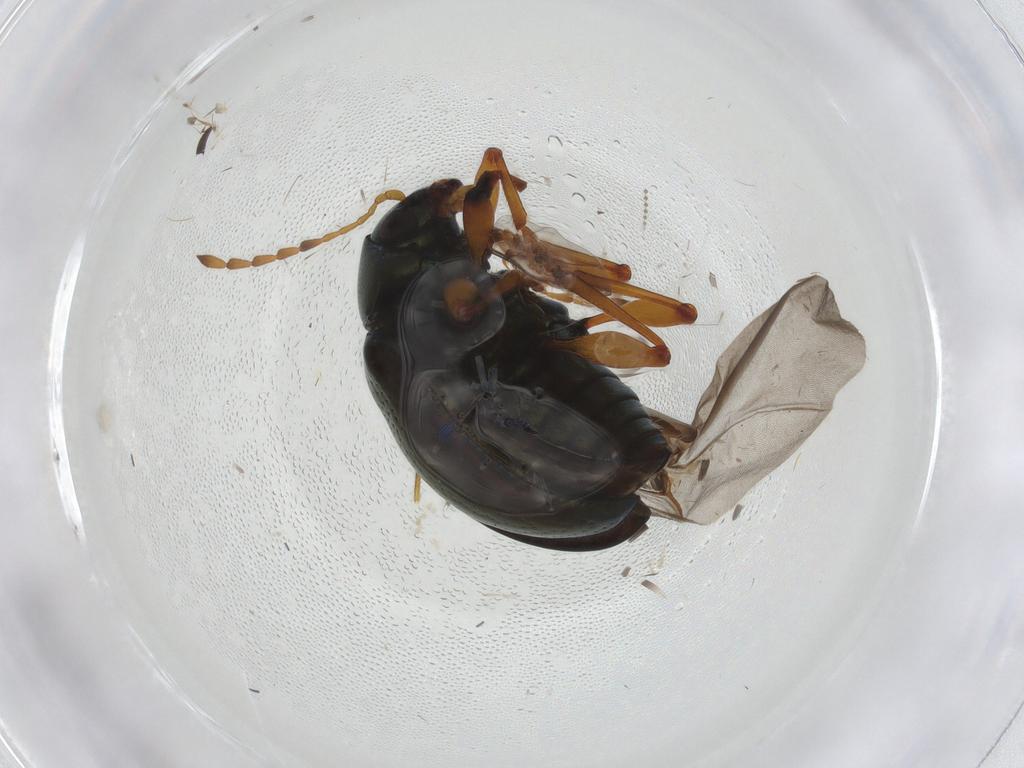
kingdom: Animalia
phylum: Arthropoda
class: Insecta
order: Coleoptera
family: Chrysomelidae
